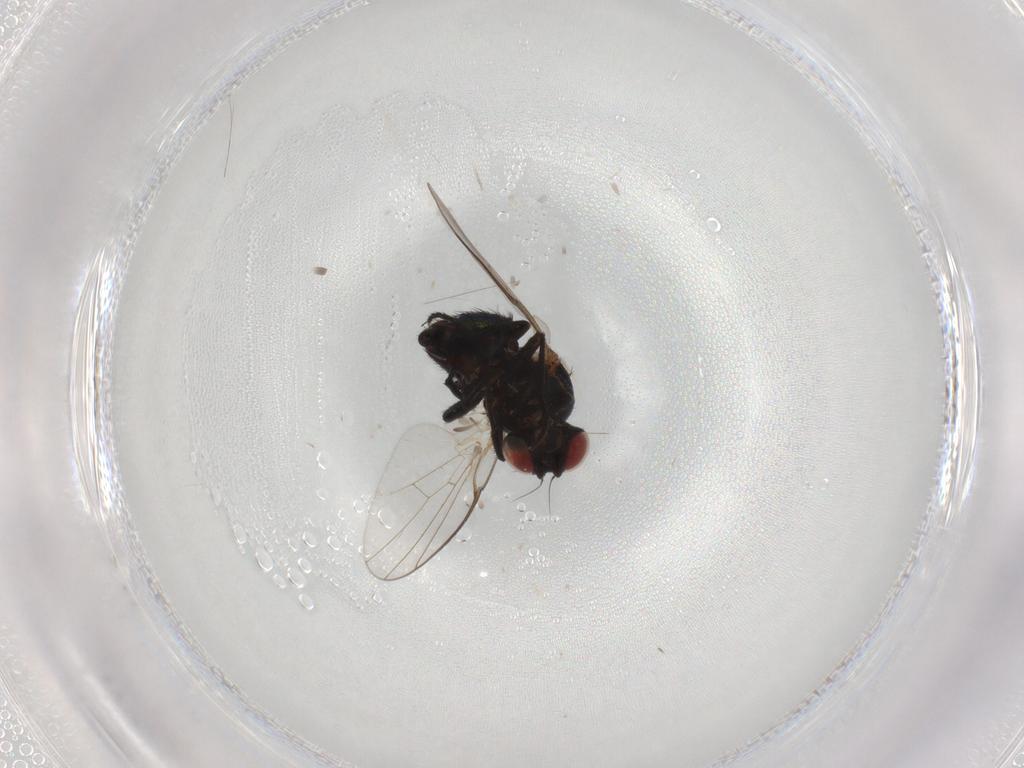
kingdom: Animalia
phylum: Arthropoda
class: Insecta
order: Diptera
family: Agromyzidae
